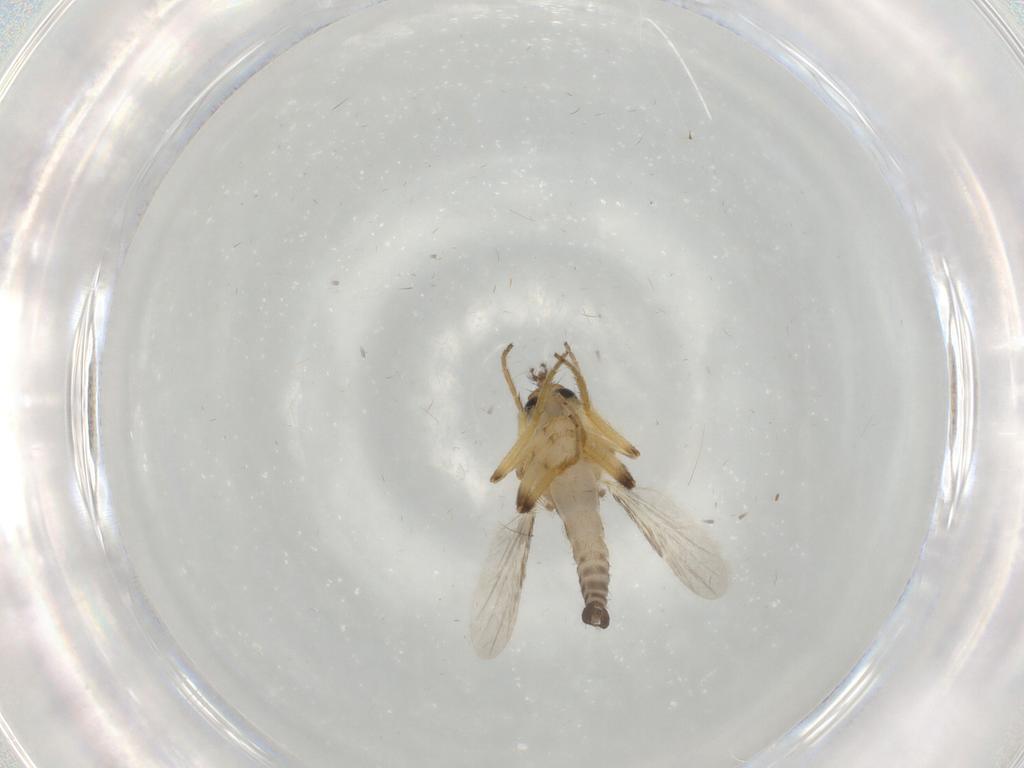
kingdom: Animalia
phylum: Arthropoda
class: Insecta
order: Diptera
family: Ceratopogonidae
